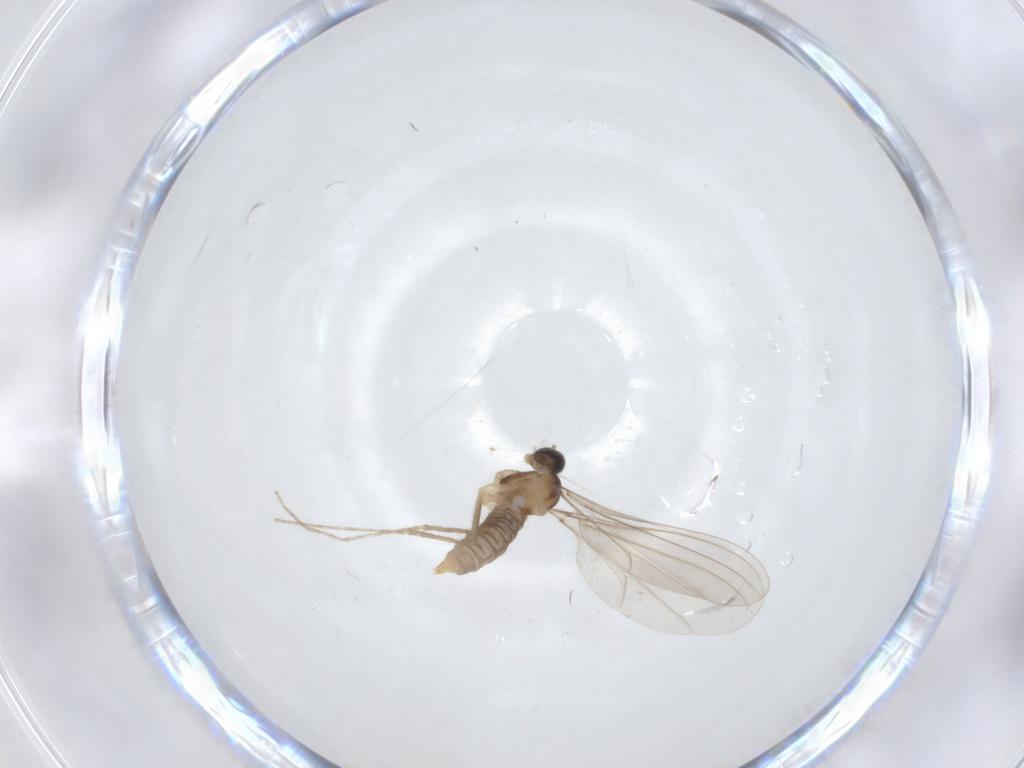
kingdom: Animalia
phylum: Arthropoda
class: Insecta
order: Diptera
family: Cecidomyiidae
